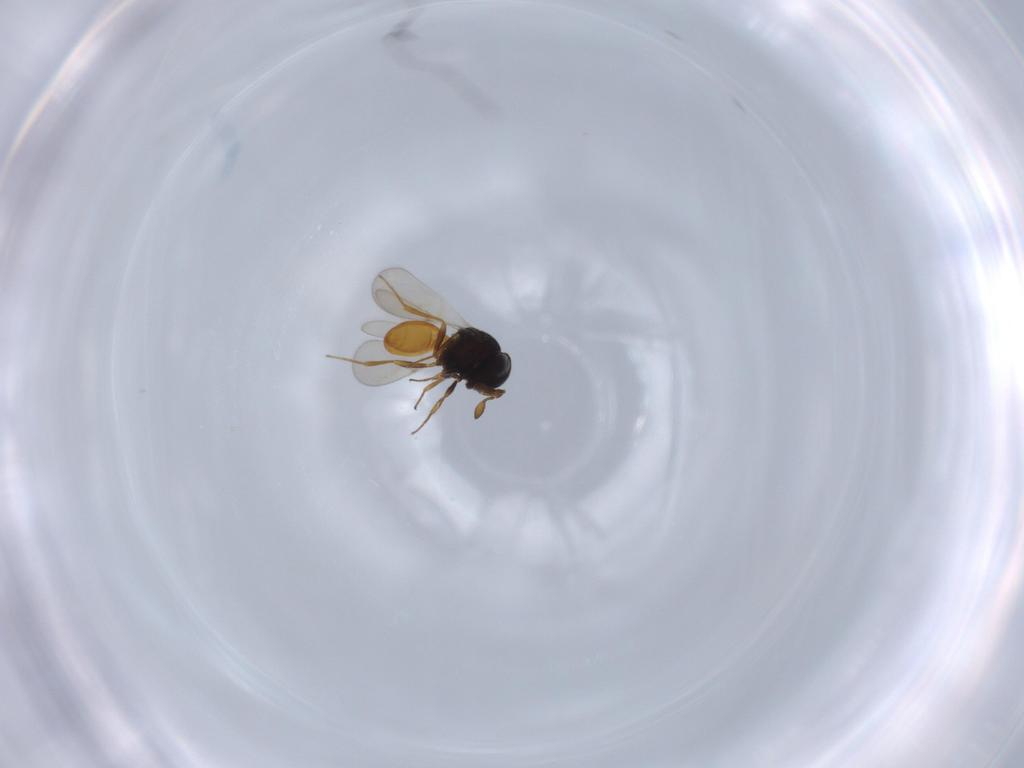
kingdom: Animalia
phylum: Arthropoda
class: Insecta
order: Hymenoptera
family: Scelionidae
